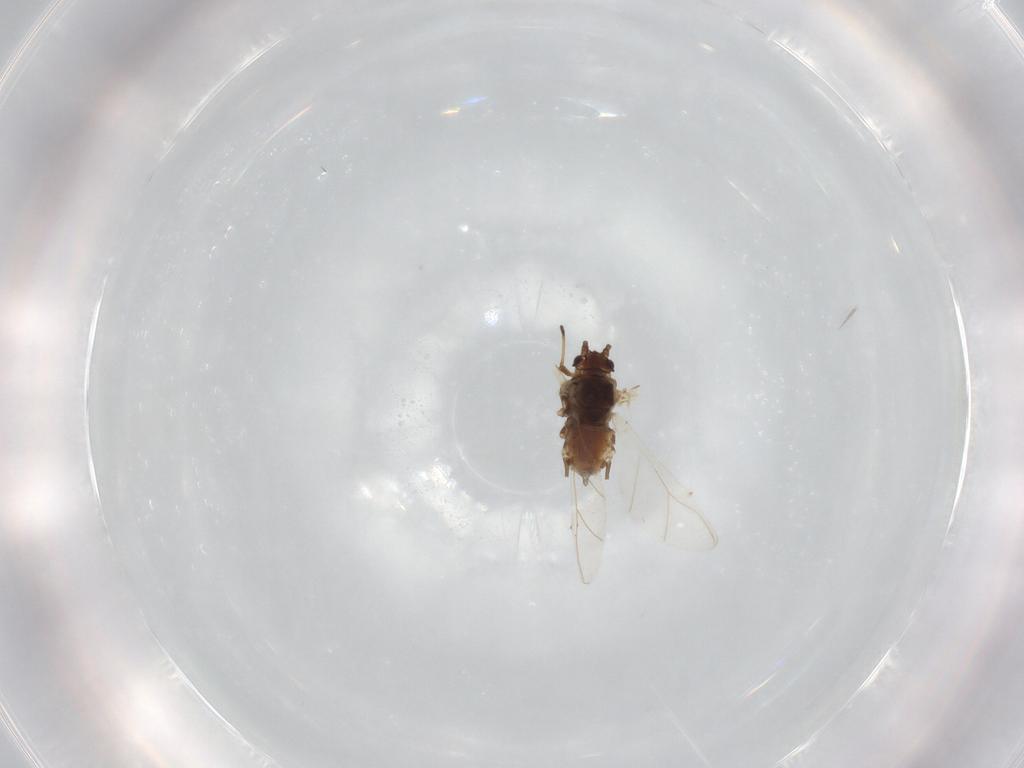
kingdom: Animalia
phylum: Arthropoda
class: Insecta
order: Hemiptera
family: Aphididae
